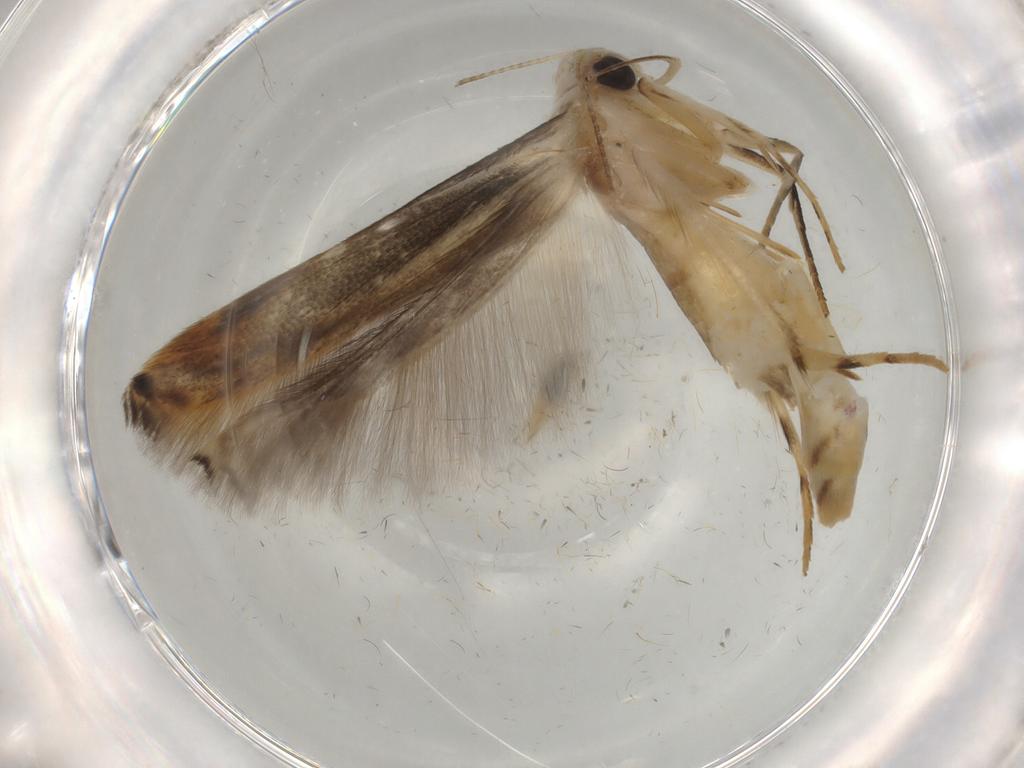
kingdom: Animalia
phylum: Arthropoda
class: Insecta
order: Lepidoptera
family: Gelechiidae
